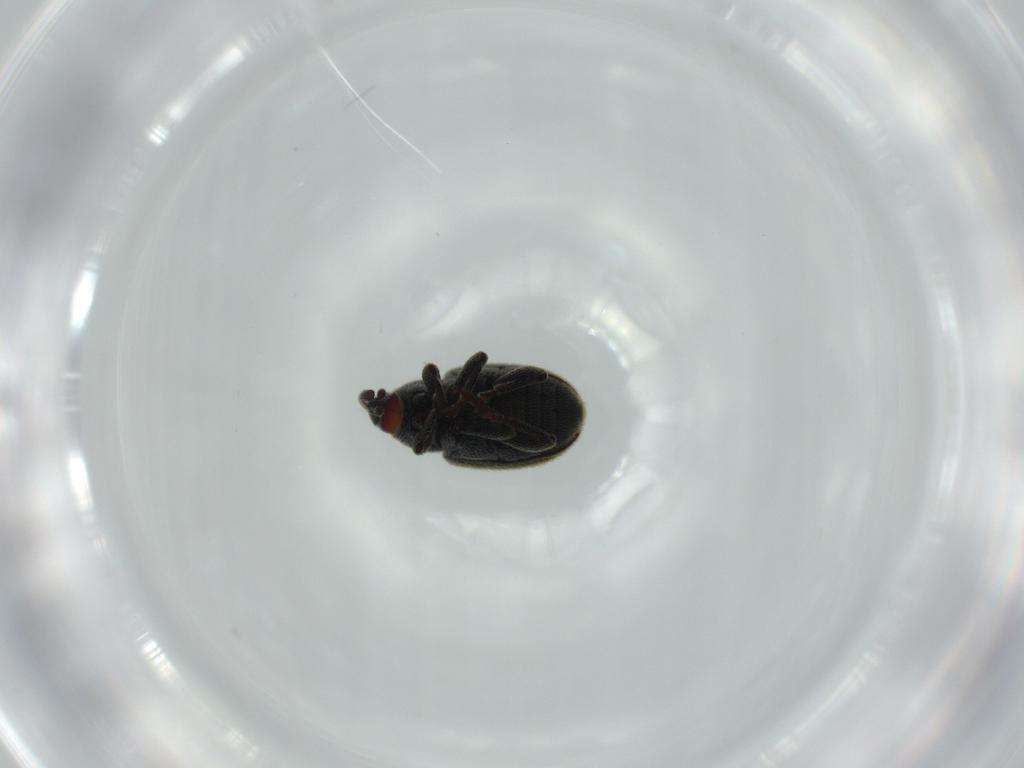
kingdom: Animalia
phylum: Arthropoda
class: Insecta
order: Coleoptera
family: Curculionidae
